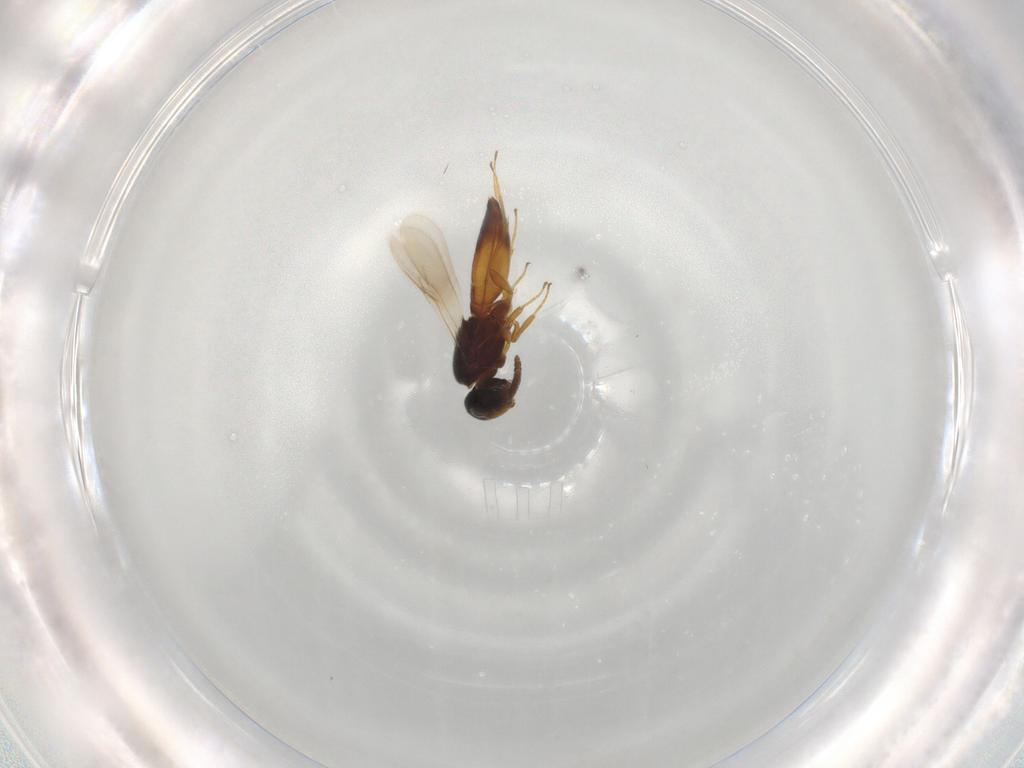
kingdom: Animalia
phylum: Arthropoda
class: Insecta
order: Hymenoptera
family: Scelionidae
